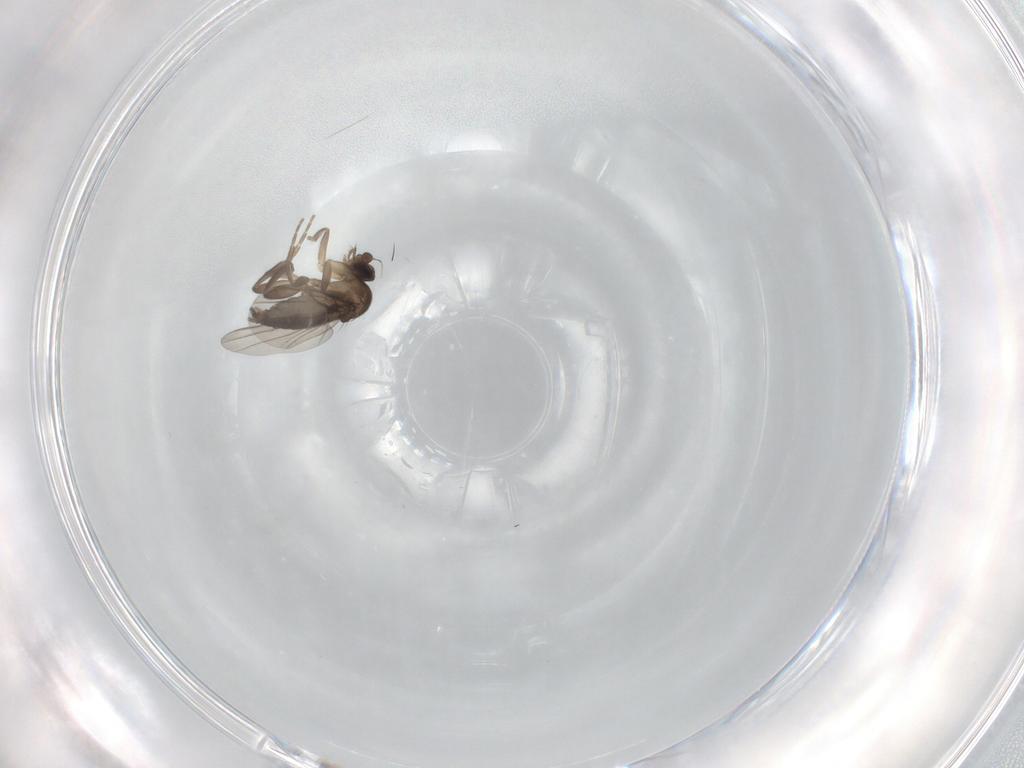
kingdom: Animalia
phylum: Arthropoda
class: Insecta
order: Diptera
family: Phoridae
